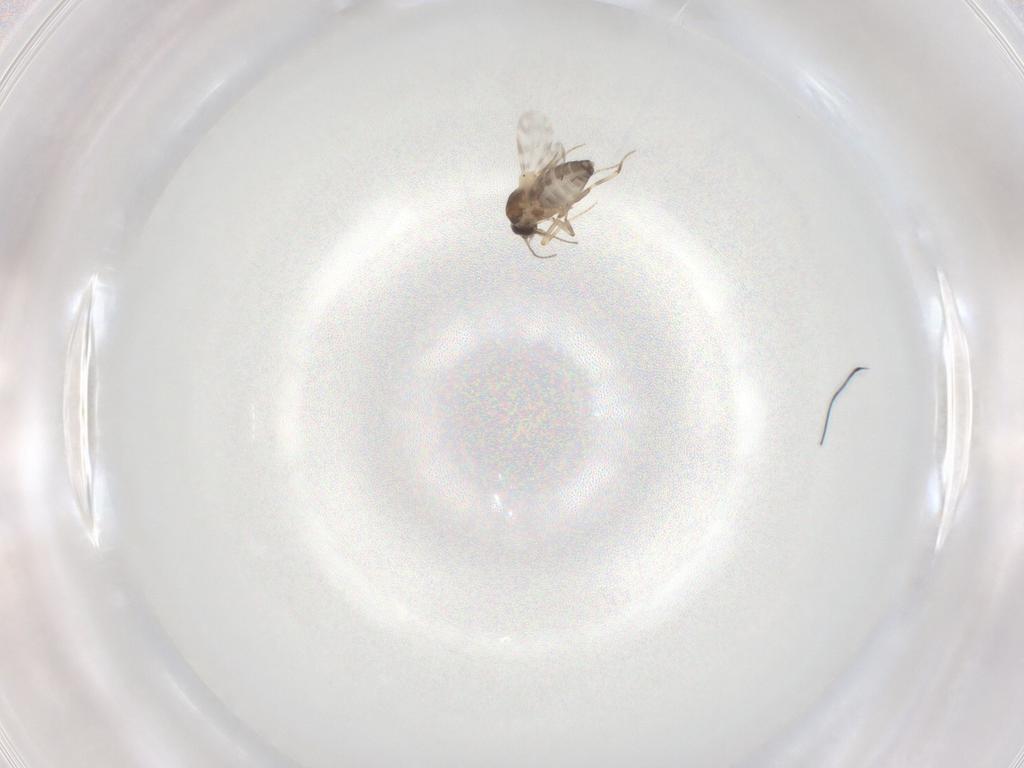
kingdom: Animalia
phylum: Arthropoda
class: Insecta
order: Diptera
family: Ceratopogonidae
